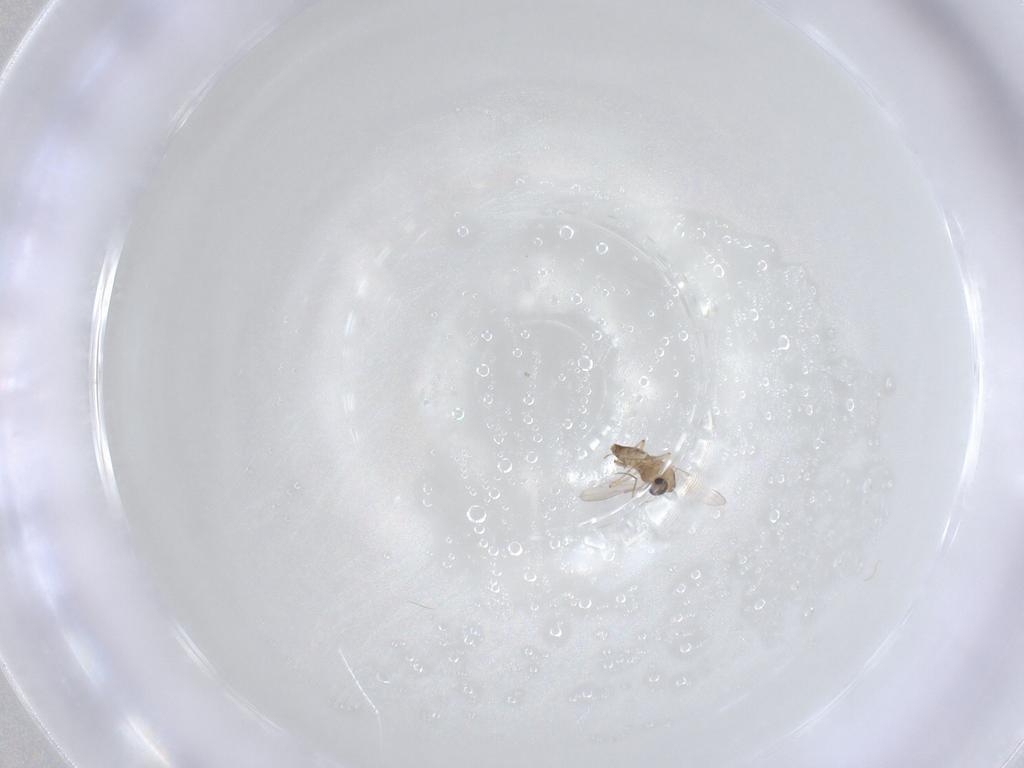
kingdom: Animalia
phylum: Arthropoda
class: Insecta
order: Diptera
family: Chironomidae
